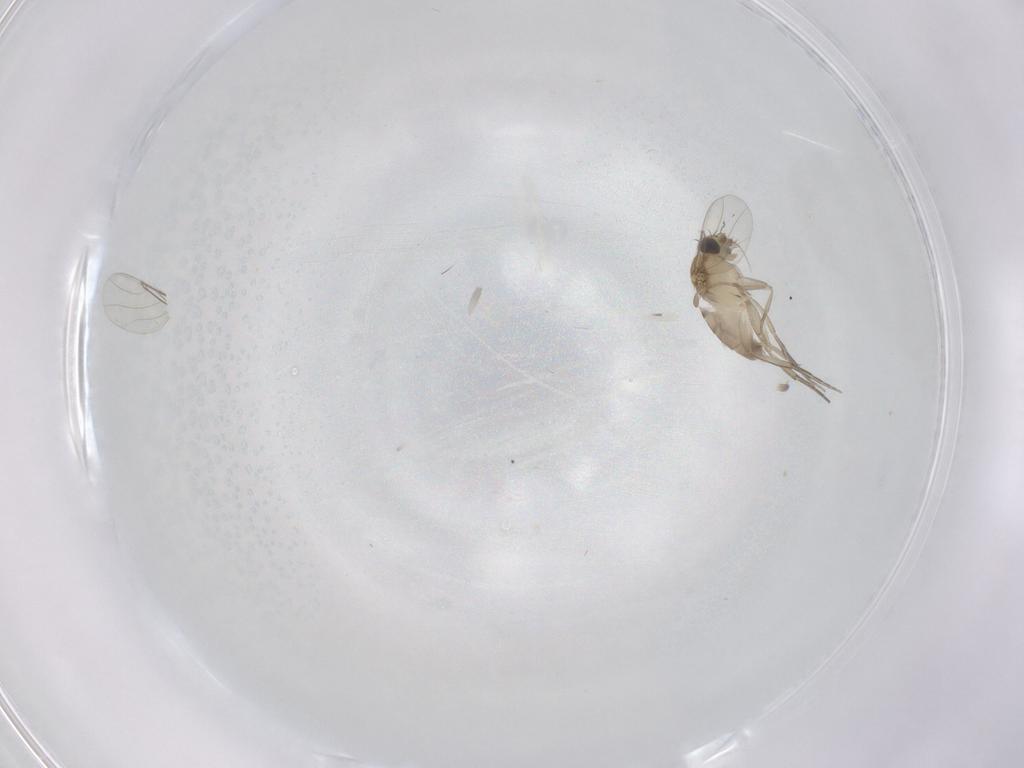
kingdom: Animalia
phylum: Arthropoda
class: Insecta
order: Diptera
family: Phoridae
